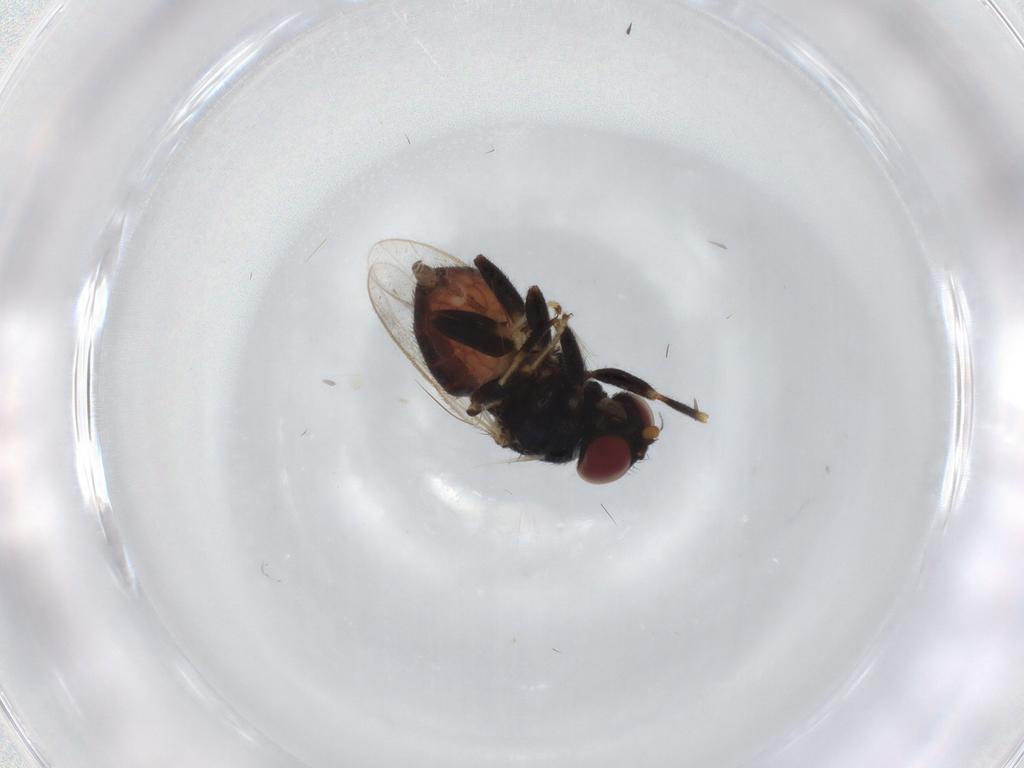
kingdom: Animalia
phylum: Arthropoda
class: Insecta
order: Diptera
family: Chloropidae
